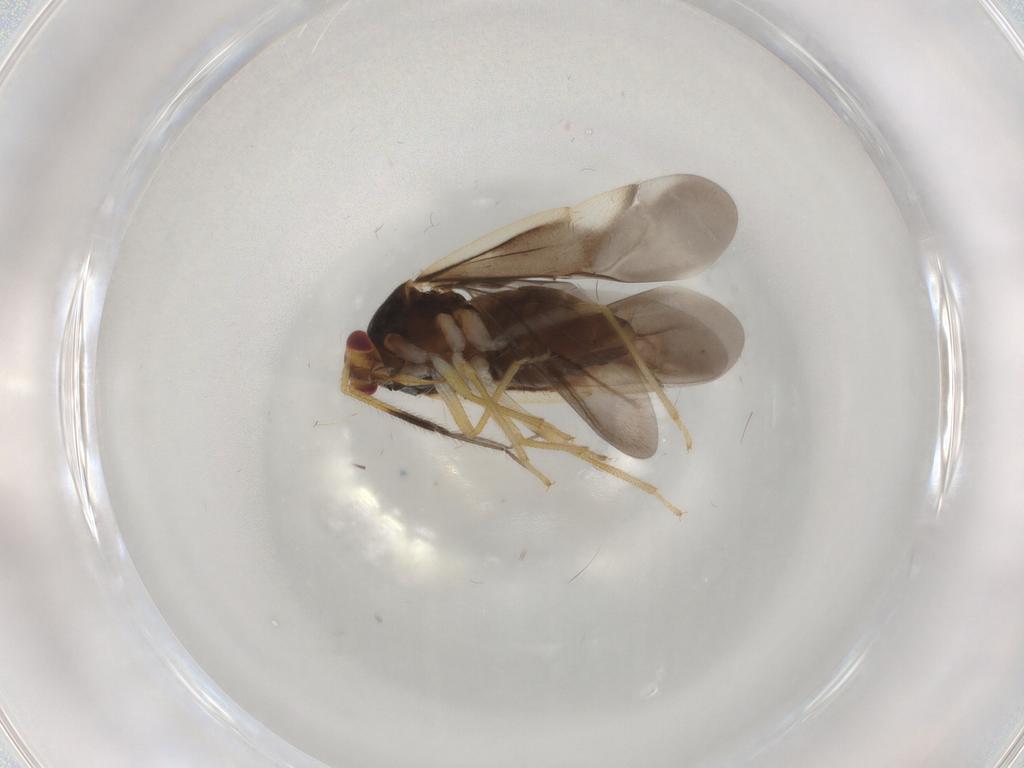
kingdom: Animalia
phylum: Arthropoda
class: Insecta
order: Hemiptera
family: Miridae
